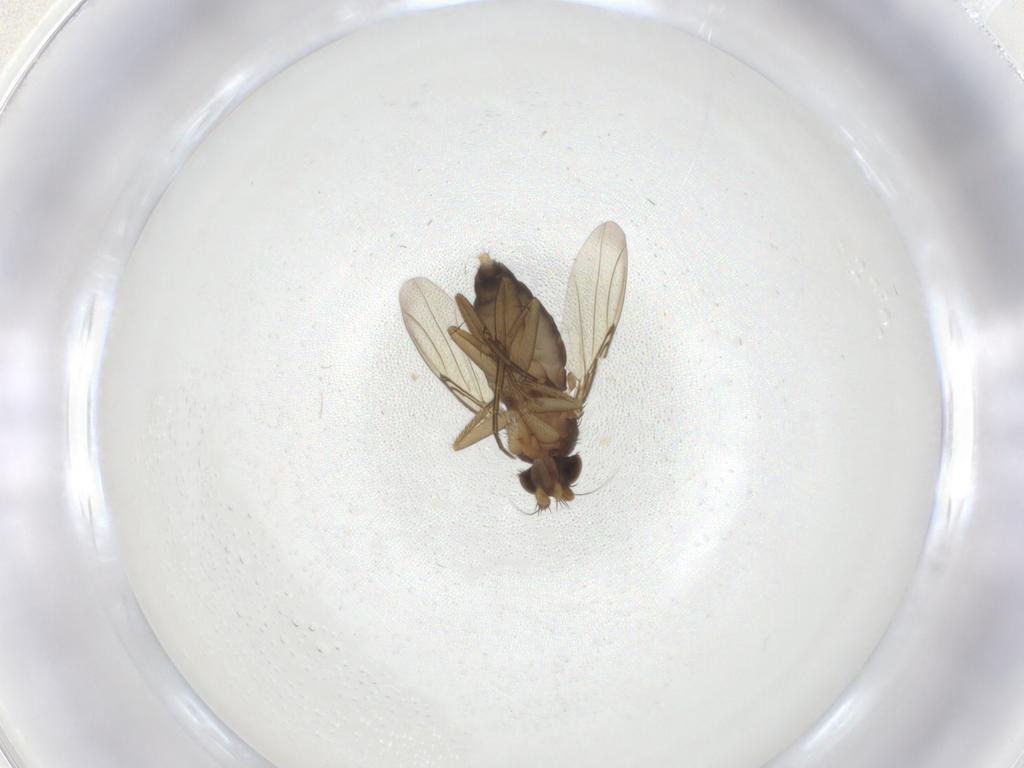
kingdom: Animalia
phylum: Arthropoda
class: Insecta
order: Diptera
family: Phoridae
